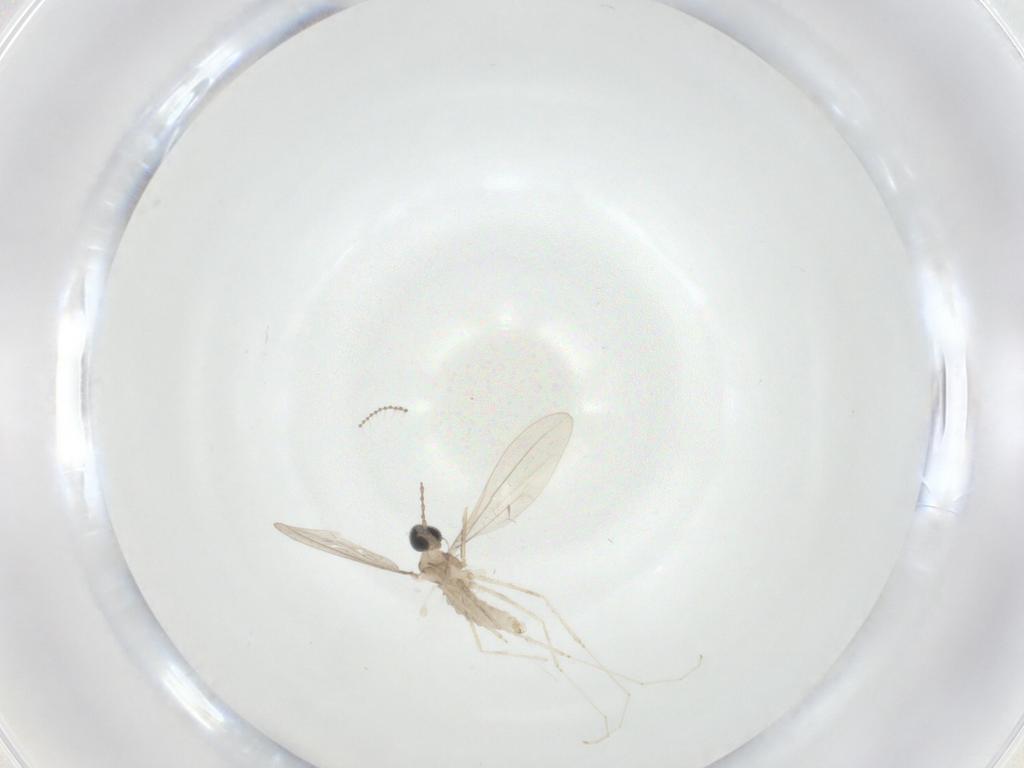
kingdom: Animalia
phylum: Arthropoda
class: Insecta
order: Diptera
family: Cecidomyiidae
